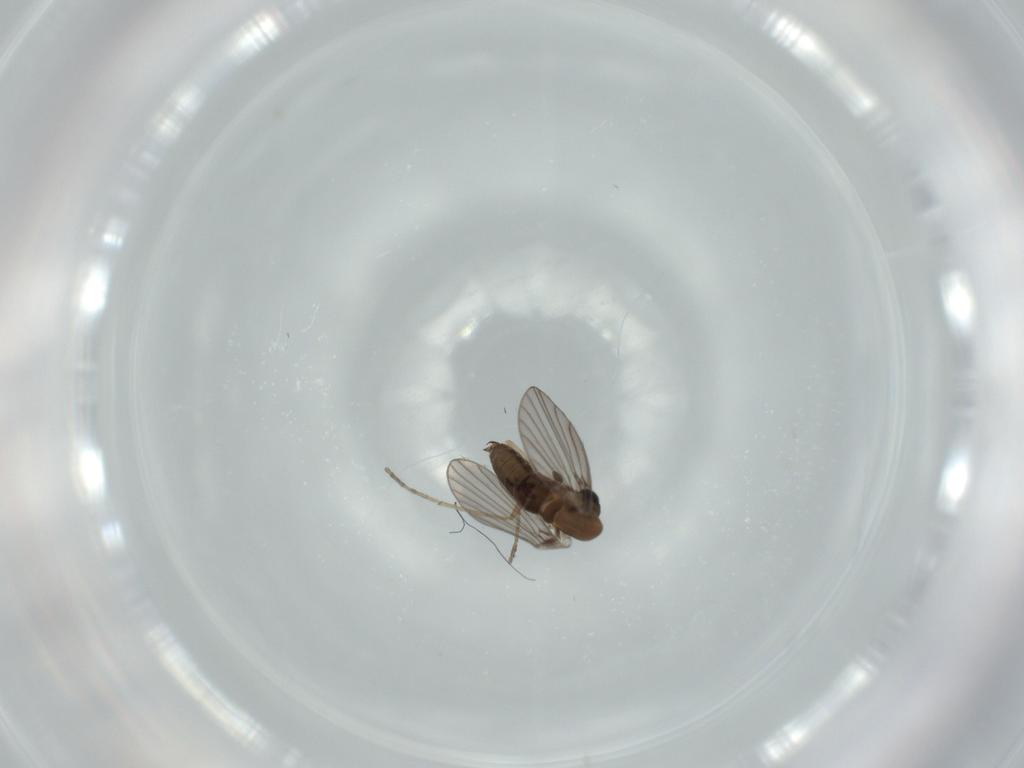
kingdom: Animalia
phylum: Arthropoda
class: Insecta
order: Diptera
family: Psychodidae
